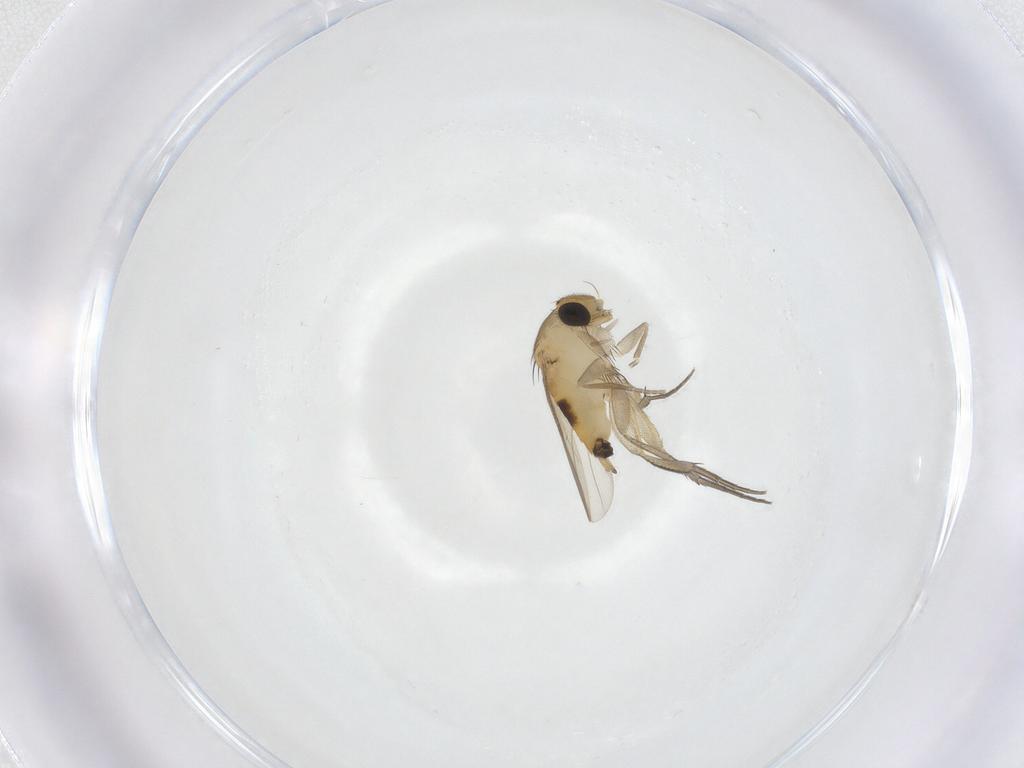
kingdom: Animalia
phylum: Arthropoda
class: Insecta
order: Diptera
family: Phoridae
